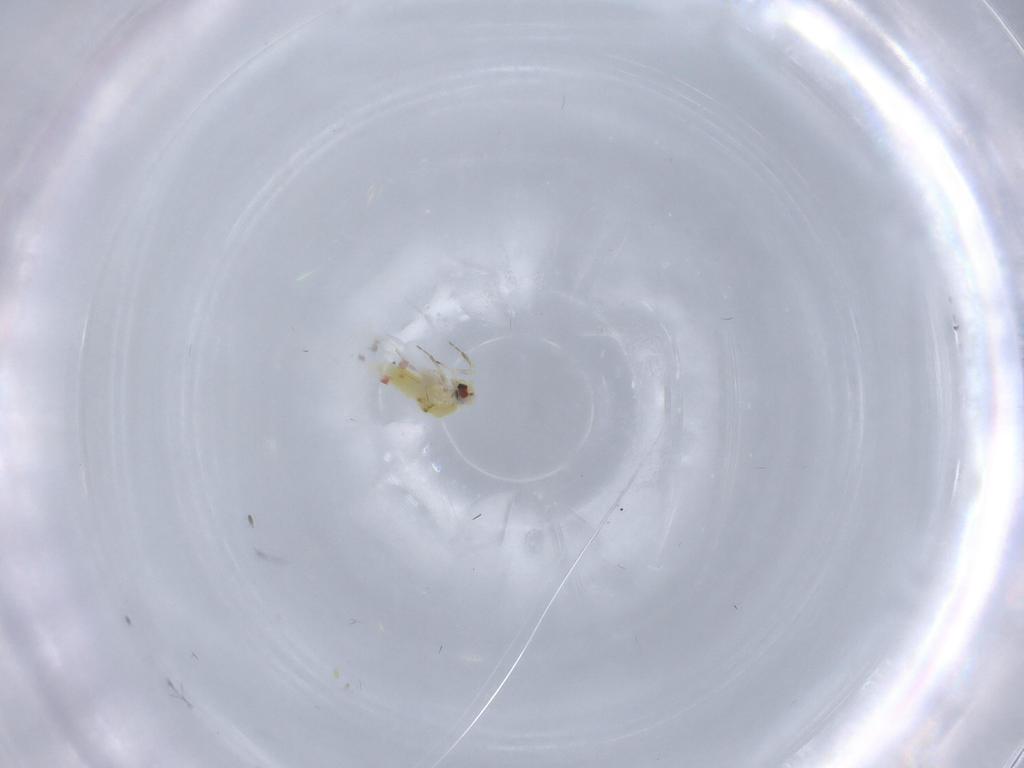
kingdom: Animalia
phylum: Arthropoda
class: Insecta
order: Hemiptera
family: Aleyrodidae
